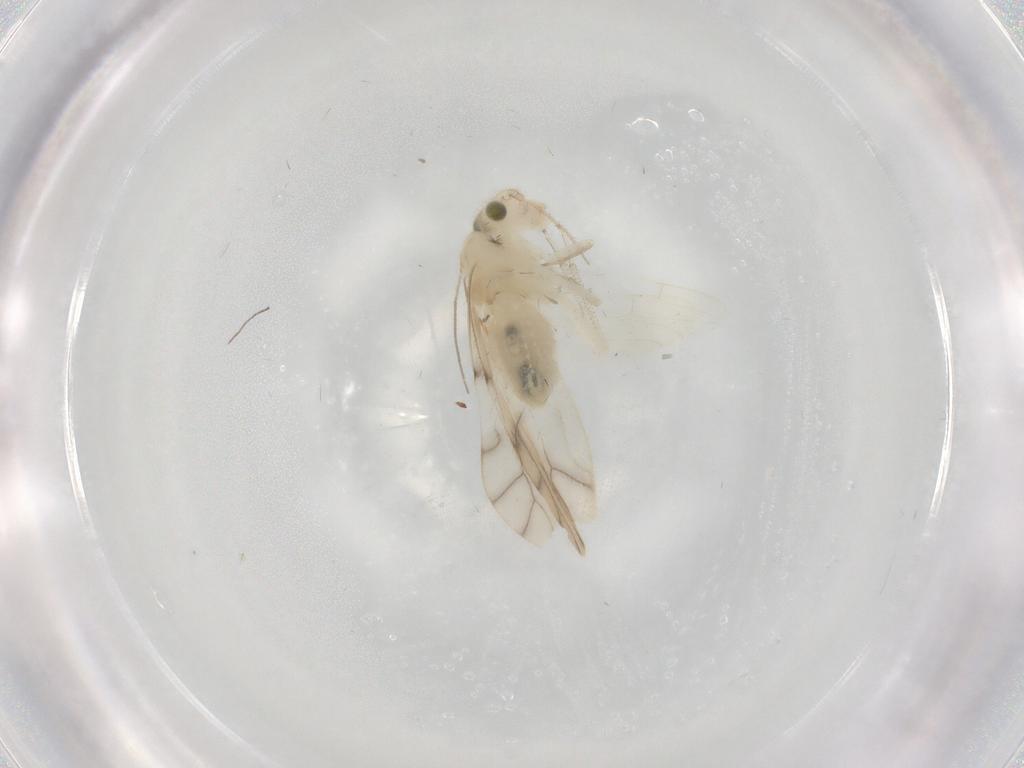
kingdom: Animalia
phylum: Arthropoda
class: Insecta
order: Psocodea
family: Caeciliusidae
